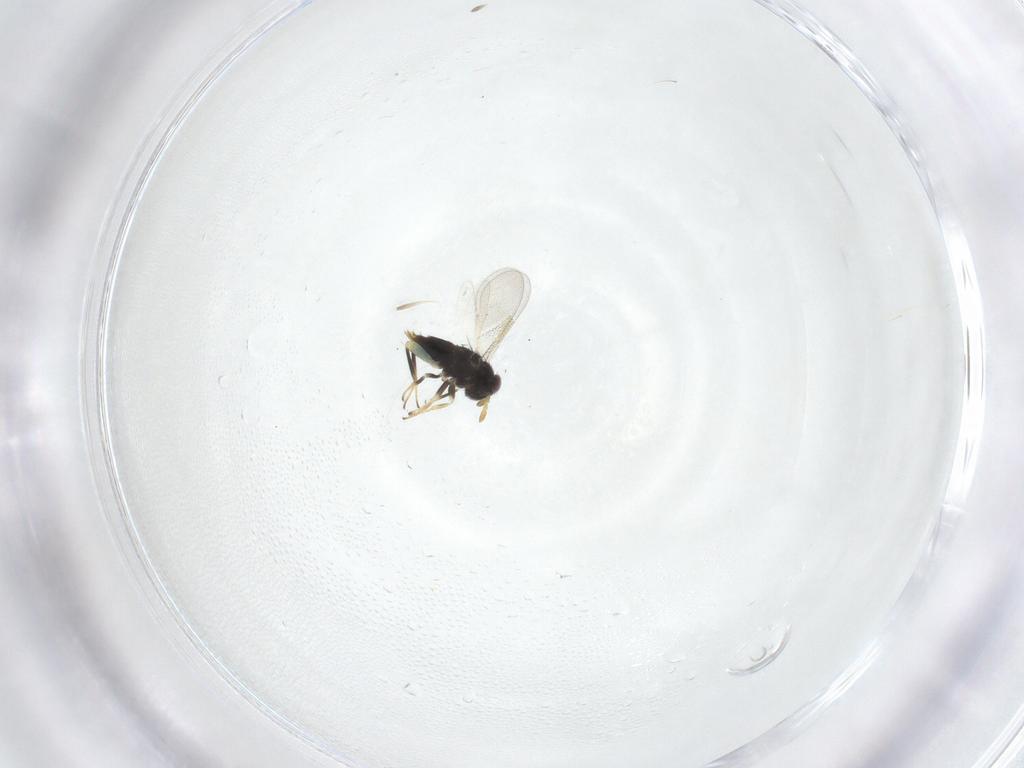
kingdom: Animalia
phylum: Arthropoda
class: Insecta
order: Hymenoptera
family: Aphelinidae
